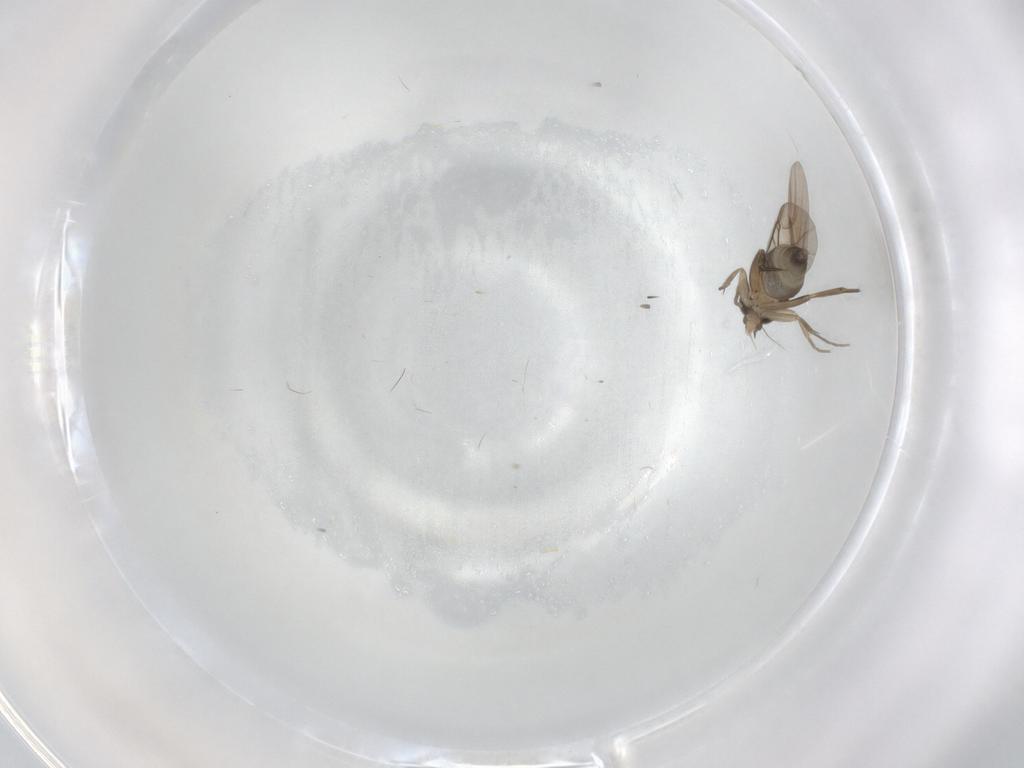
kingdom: Animalia
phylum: Arthropoda
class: Insecta
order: Diptera
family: Phoridae
